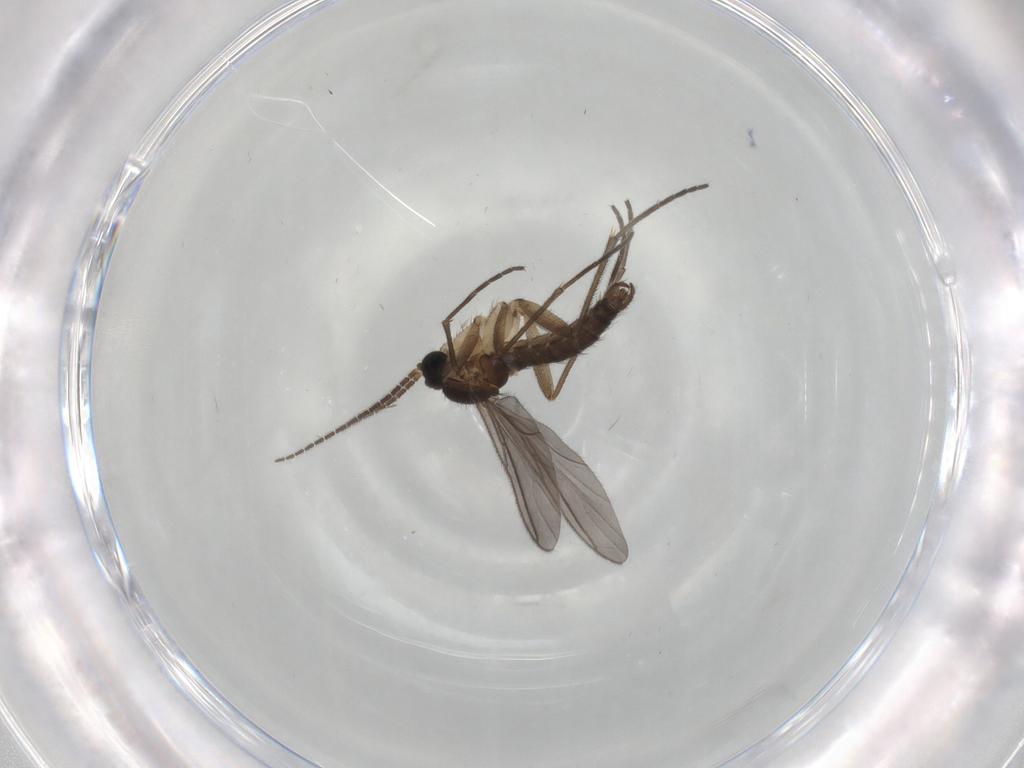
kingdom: Animalia
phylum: Arthropoda
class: Insecta
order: Diptera
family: Sciaridae
